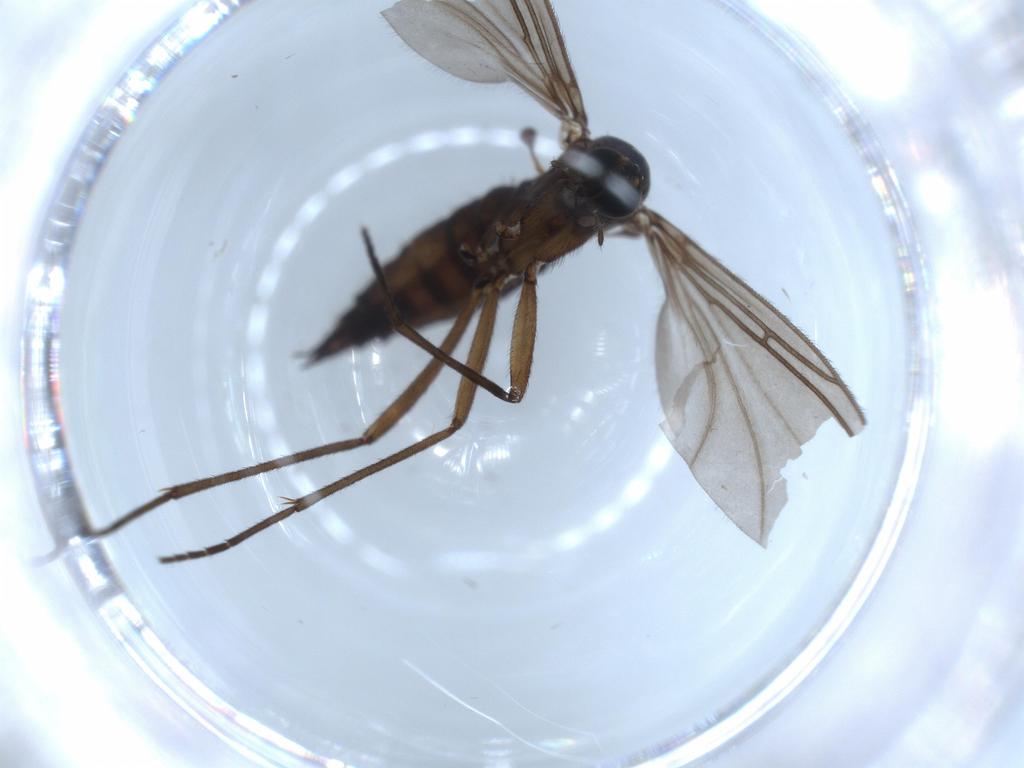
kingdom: Animalia
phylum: Arthropoda
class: Insecta
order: Diptera
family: Sciaridae
